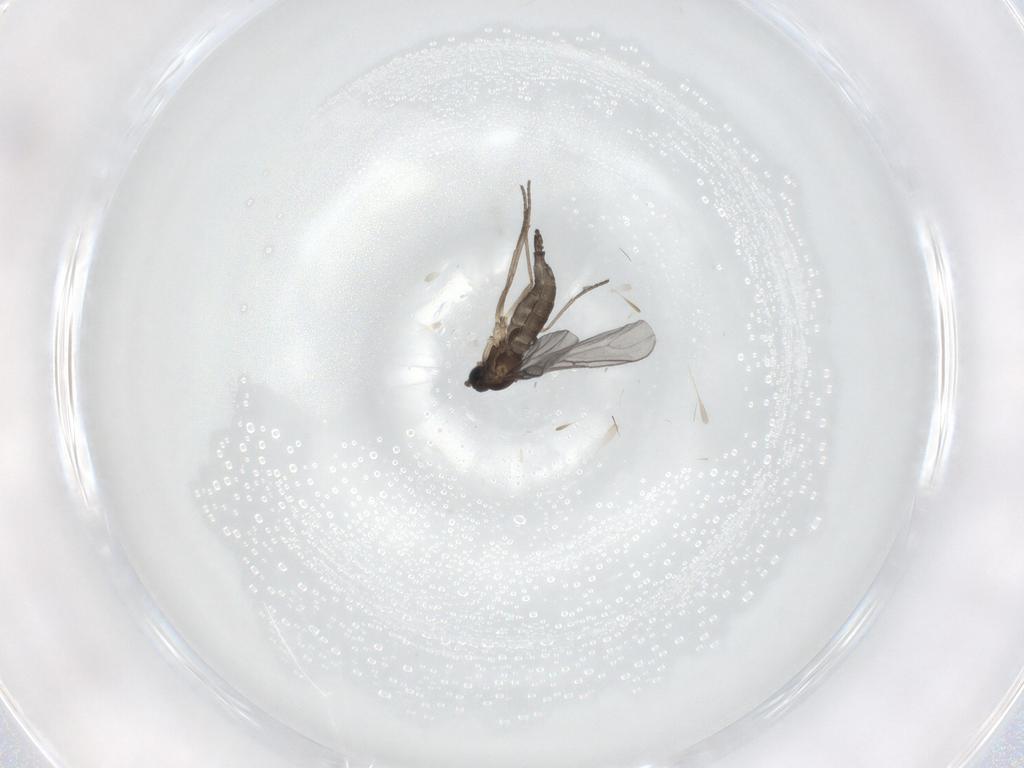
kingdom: Animalia
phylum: Arthropoda
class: Insecta
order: Diptera
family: Sciaridae
